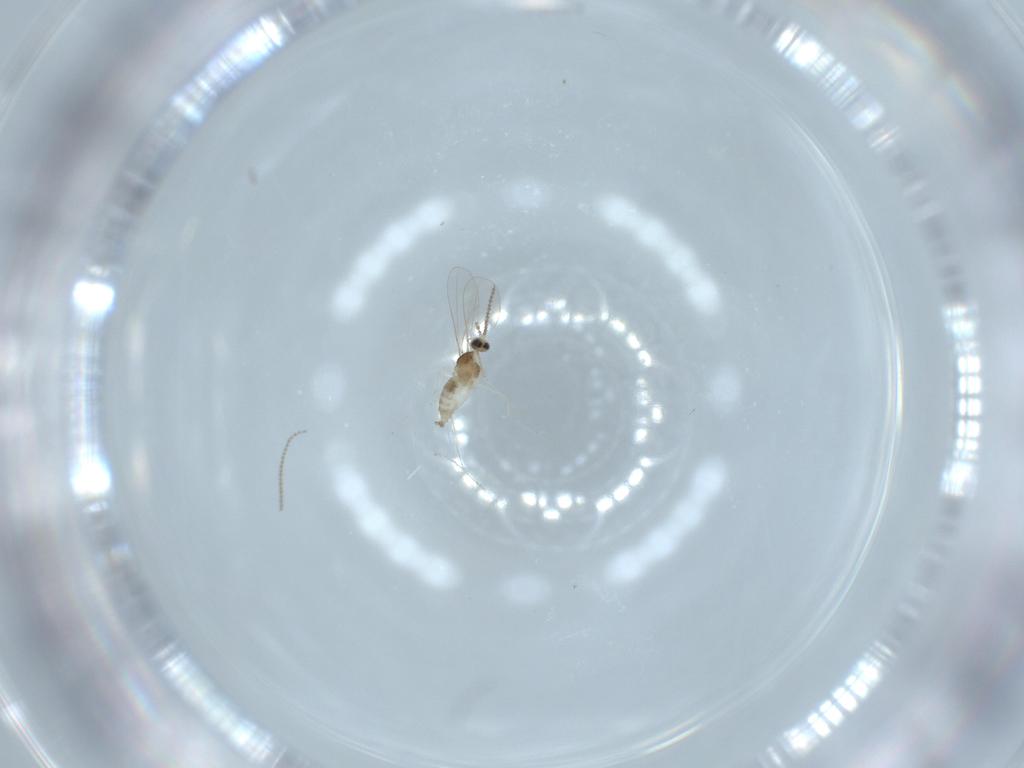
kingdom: Animalia
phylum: Arthropoda
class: Insecta
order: Diptera
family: Cecidomyiidae
